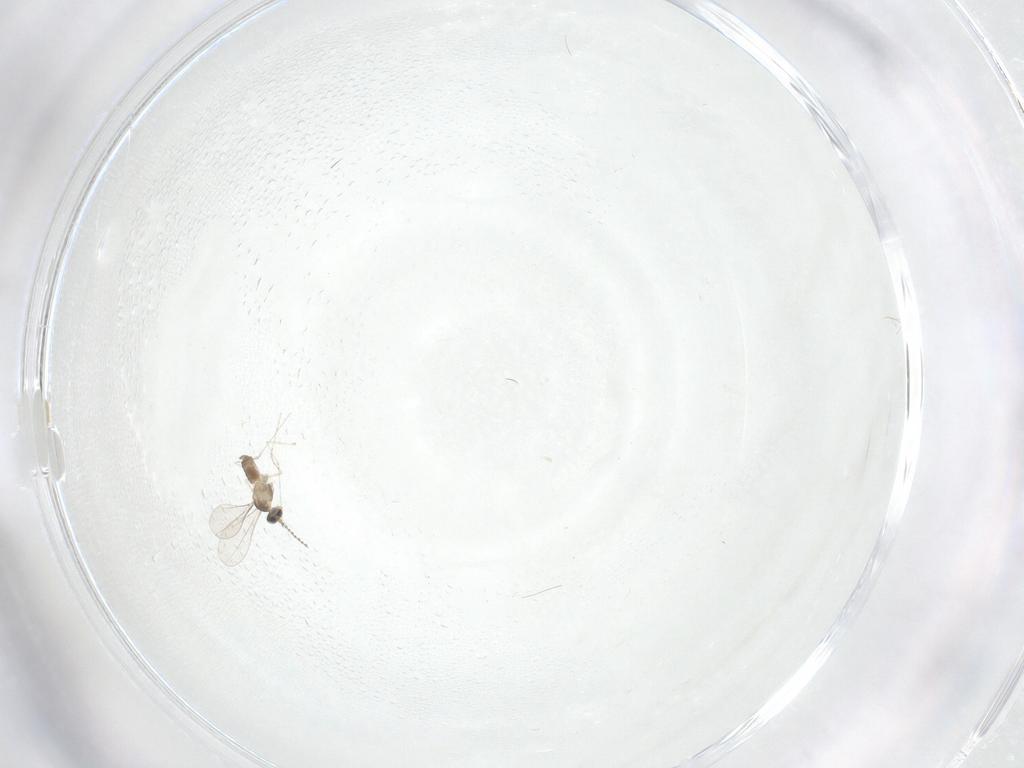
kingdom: Animalia
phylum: Arthropoda
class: Insecta
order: Diptera
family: Cecidomyiidae
